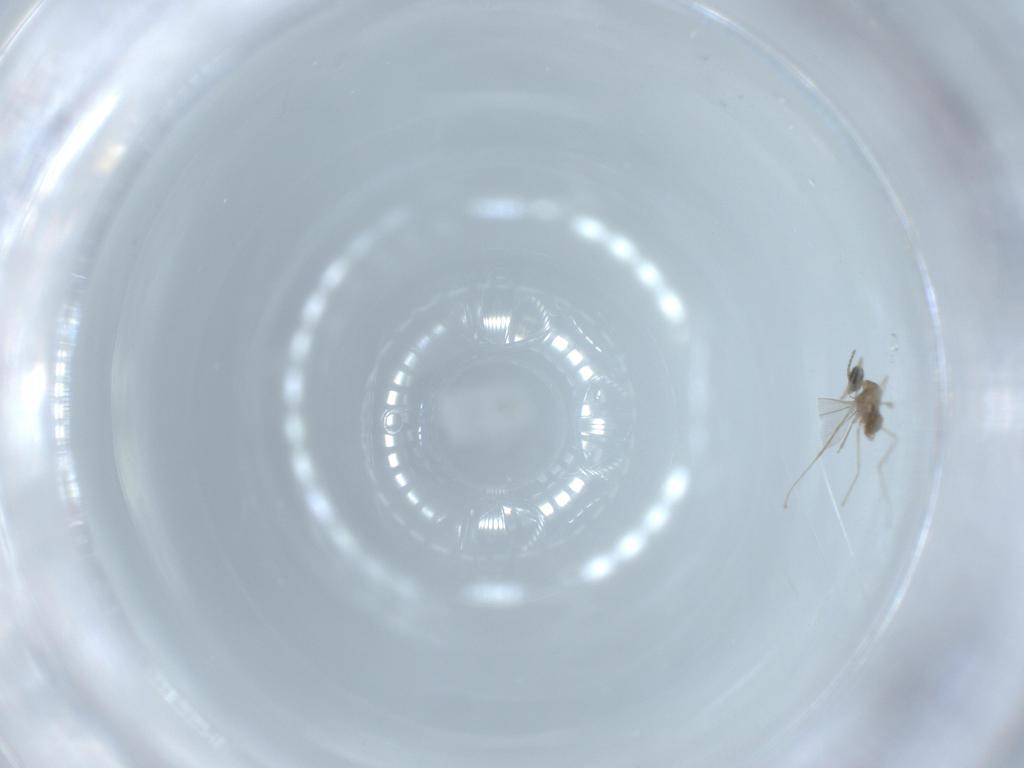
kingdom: Animalia
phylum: Arthropoda
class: Insecta
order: Diptera
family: Cecidomyiidae
